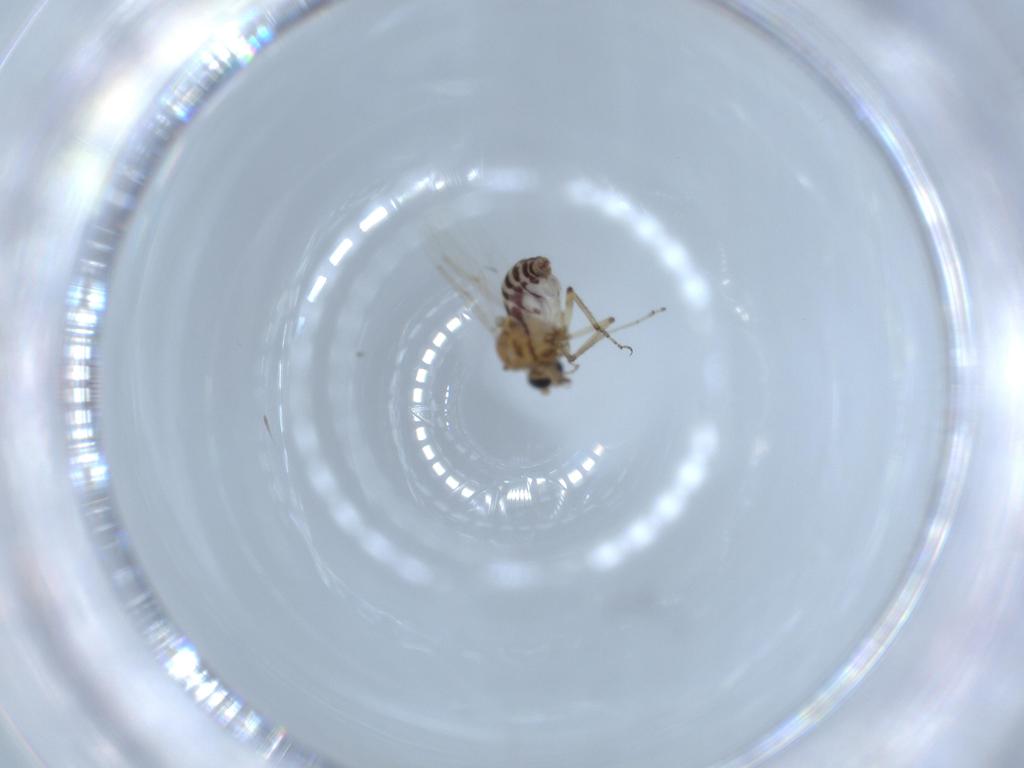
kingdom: Animalia
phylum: Arthropoda
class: Insecta
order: Diptera
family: Ceratopogonidae
